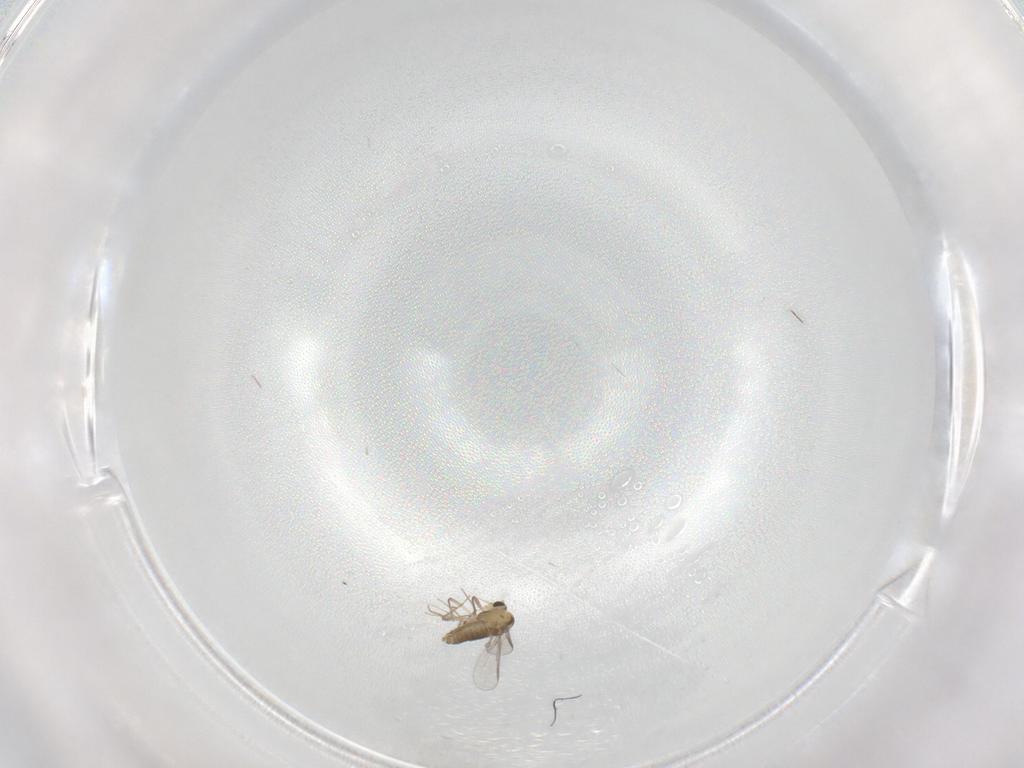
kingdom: Animalia
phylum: Arthropoda
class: Insecta
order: Diptera
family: Chironomidae
